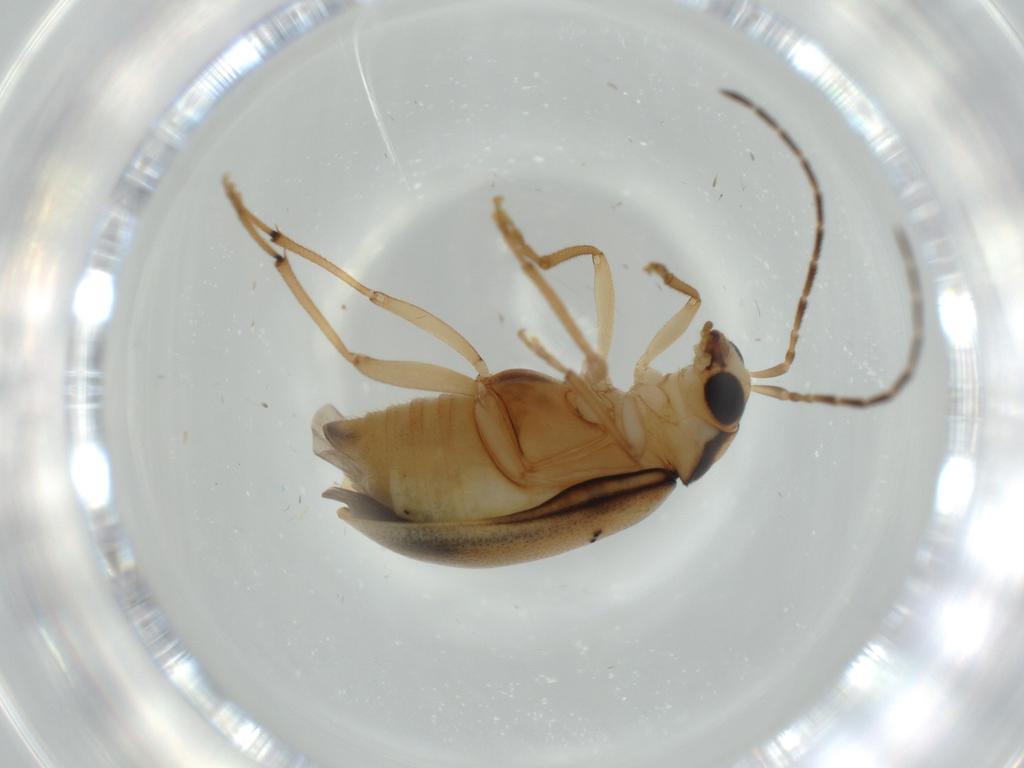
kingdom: Animalia
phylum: Arthropoda
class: Insecta
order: Coleoptera
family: Chrysomelidae
